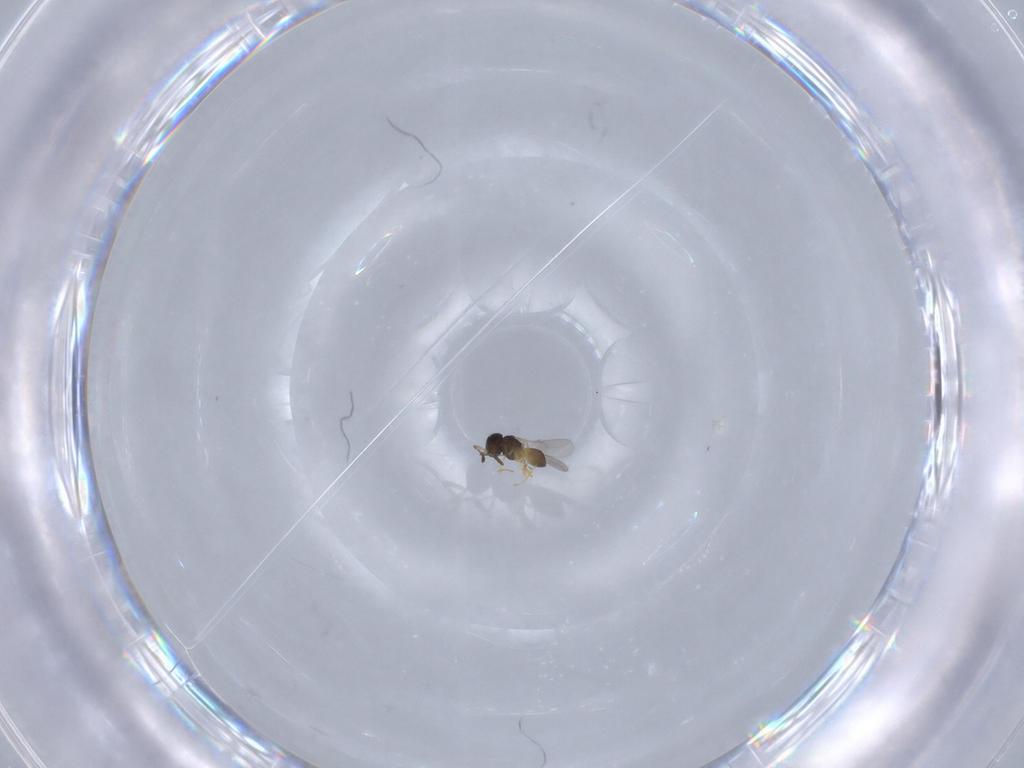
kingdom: Animalia
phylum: Arthropoda
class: Insecta
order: Hymenoptera
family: Scelionidae
